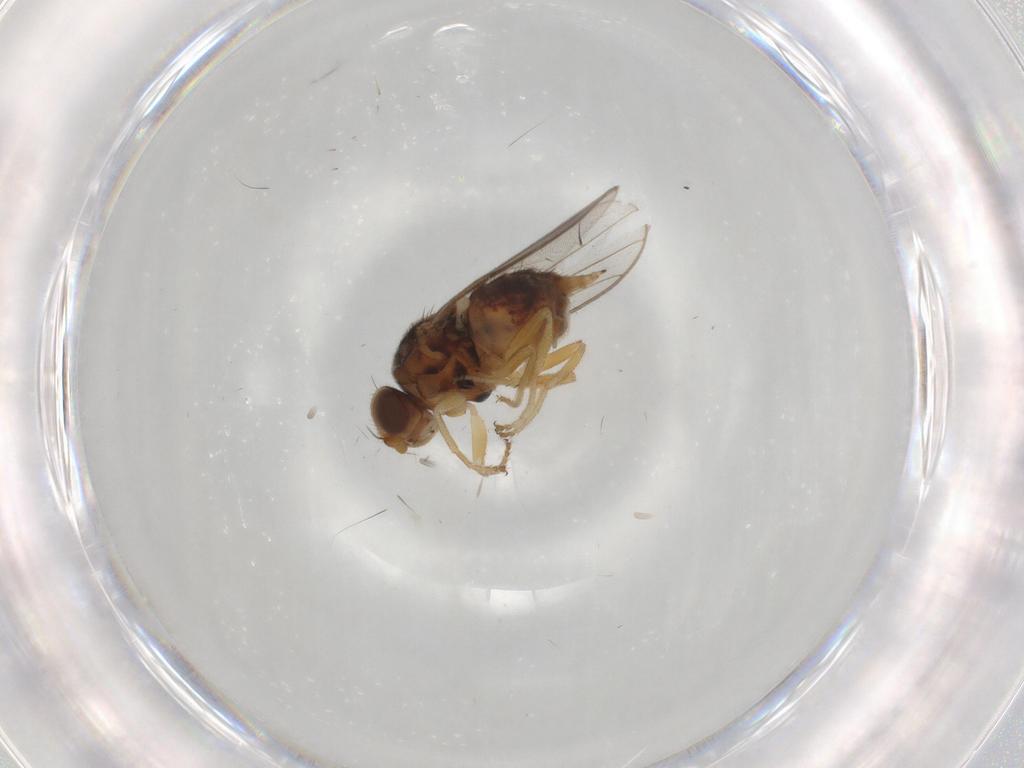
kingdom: Animalia
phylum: Arthropoda
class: Insecta
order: Diptera
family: Chloropidae
